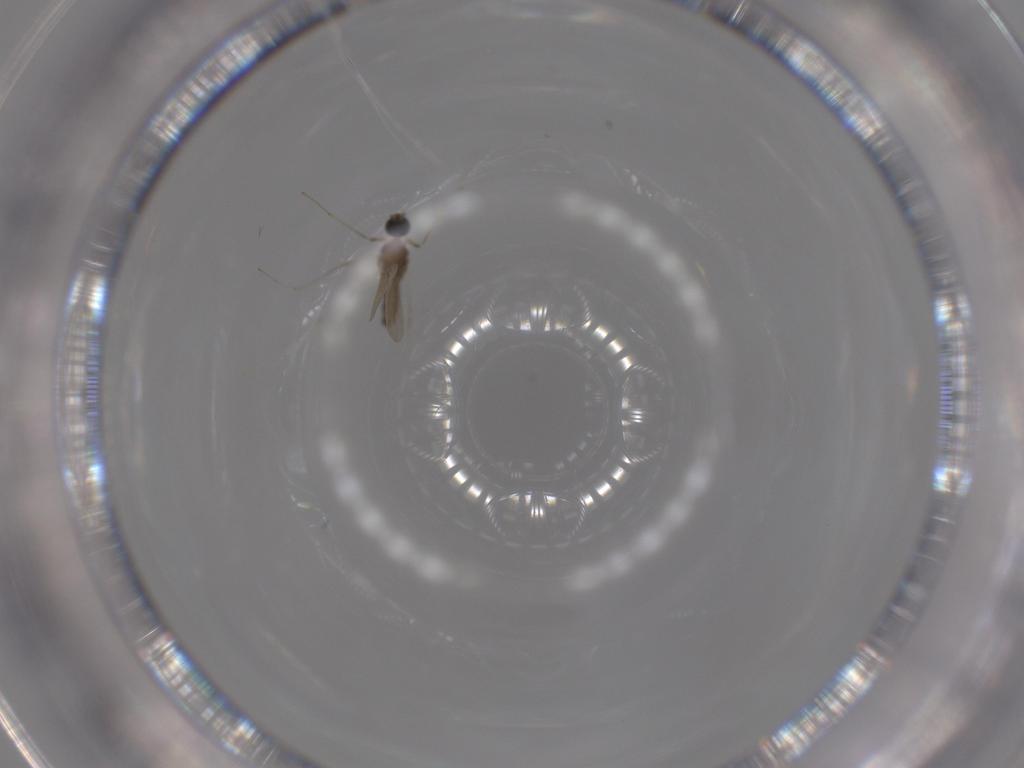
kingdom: Animalia
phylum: Arthropoda
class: Insecta
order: Diptera
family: Cecidomyiidae
